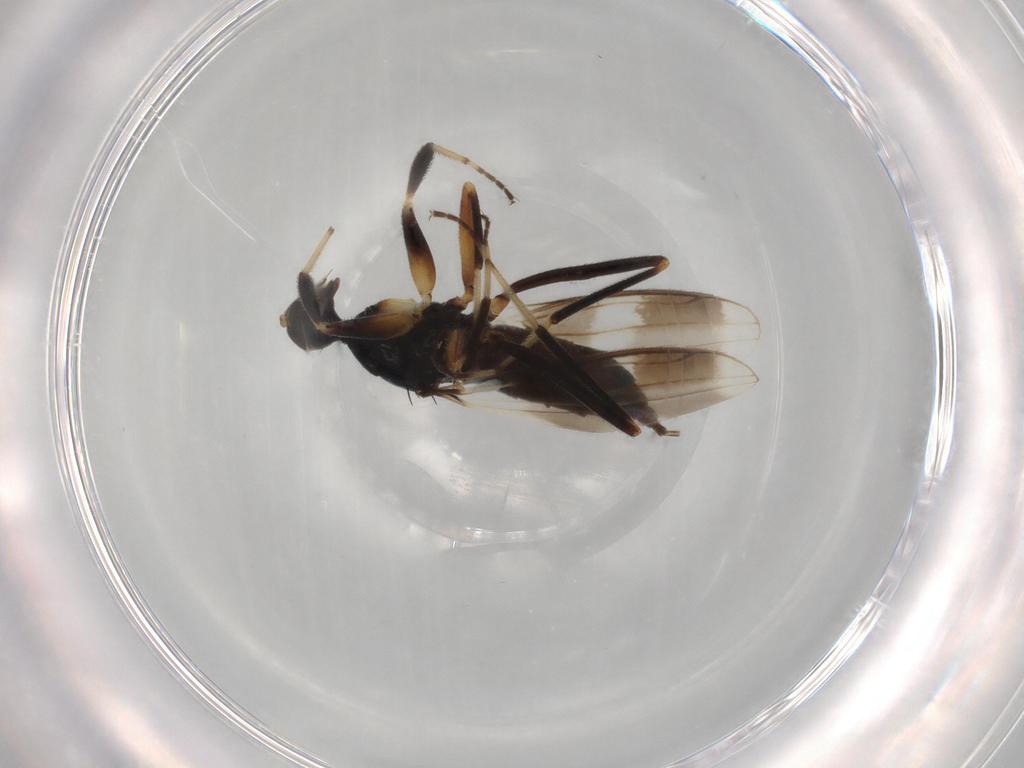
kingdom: Animalia
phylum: Arthropoda
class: Insecta
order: Diptera
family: Hybotidae
